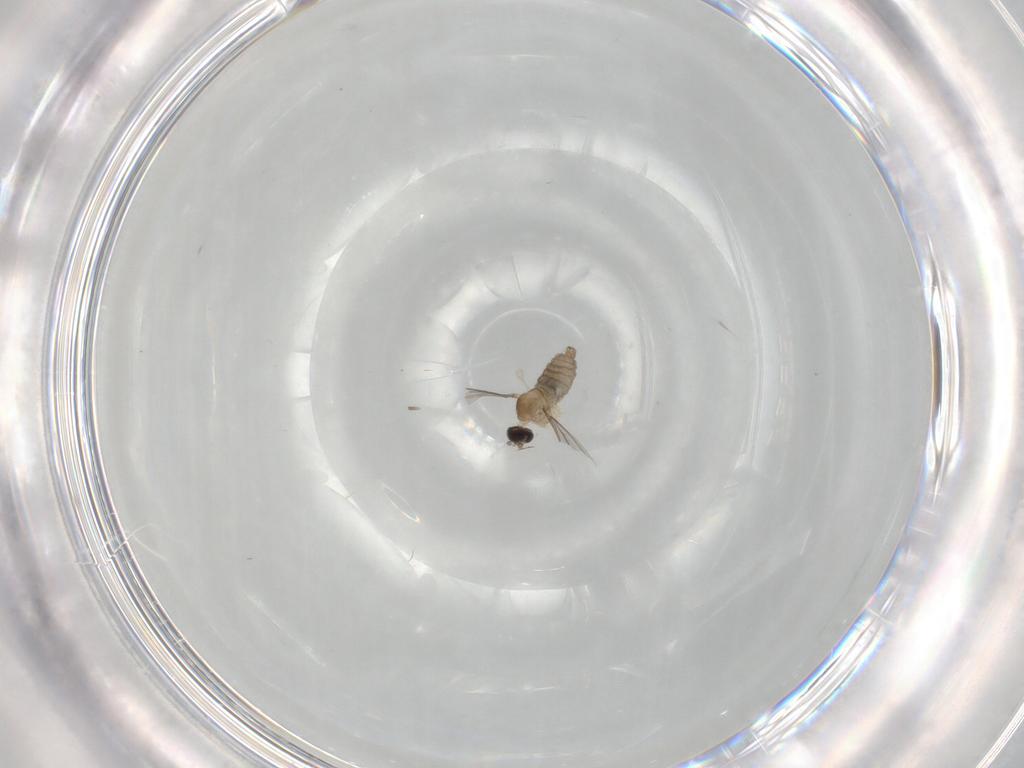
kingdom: Animalia
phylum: Arthropoda
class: Insecta
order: Diptera
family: Cecidomyiidae
